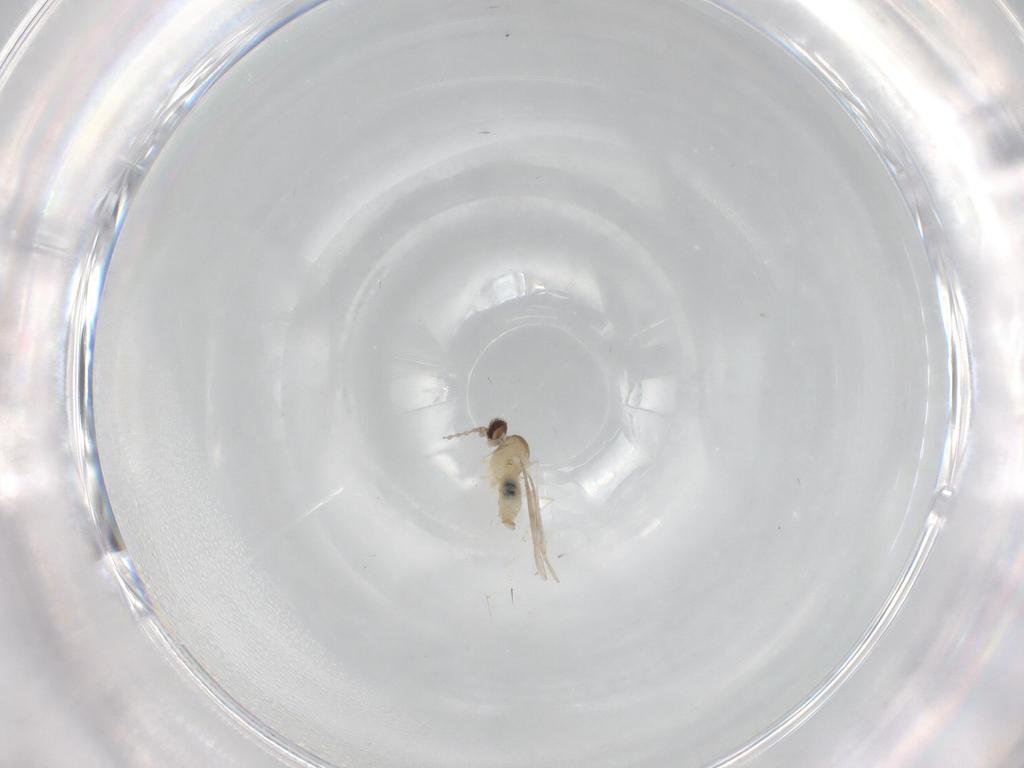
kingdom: Animalia
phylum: Arthropoda
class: Insecta
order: Diptera
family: Cecidomyiidae
